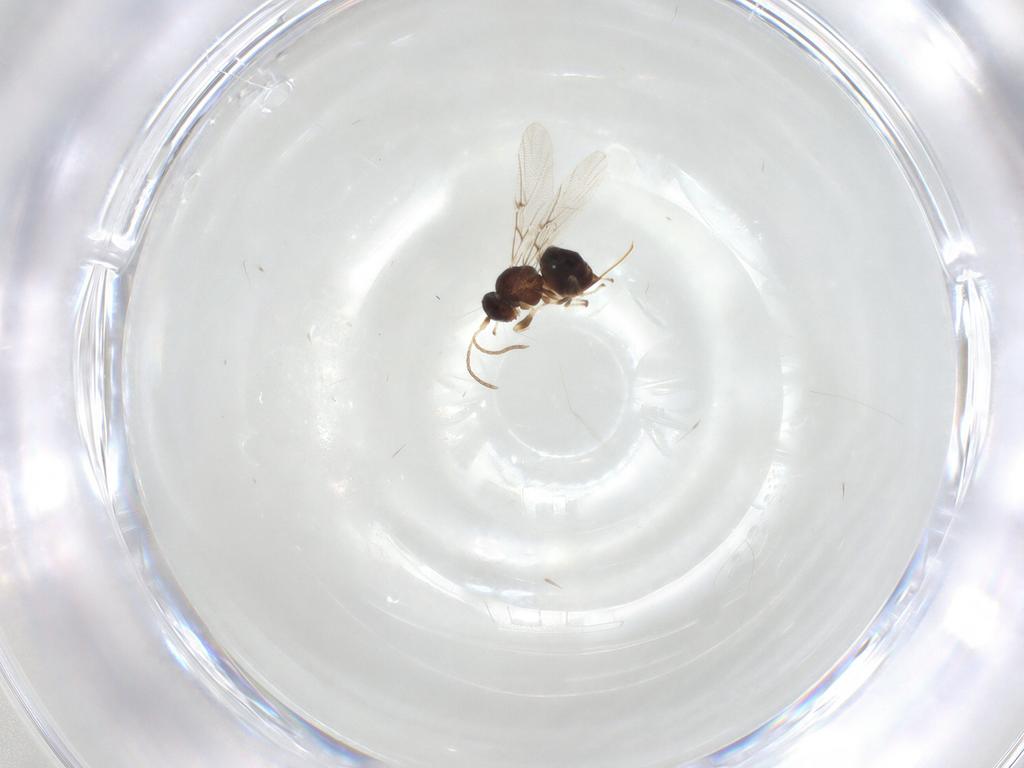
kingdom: Animalia
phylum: Arthropoda
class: Insecta
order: Hymenoptera
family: Cynipidae
